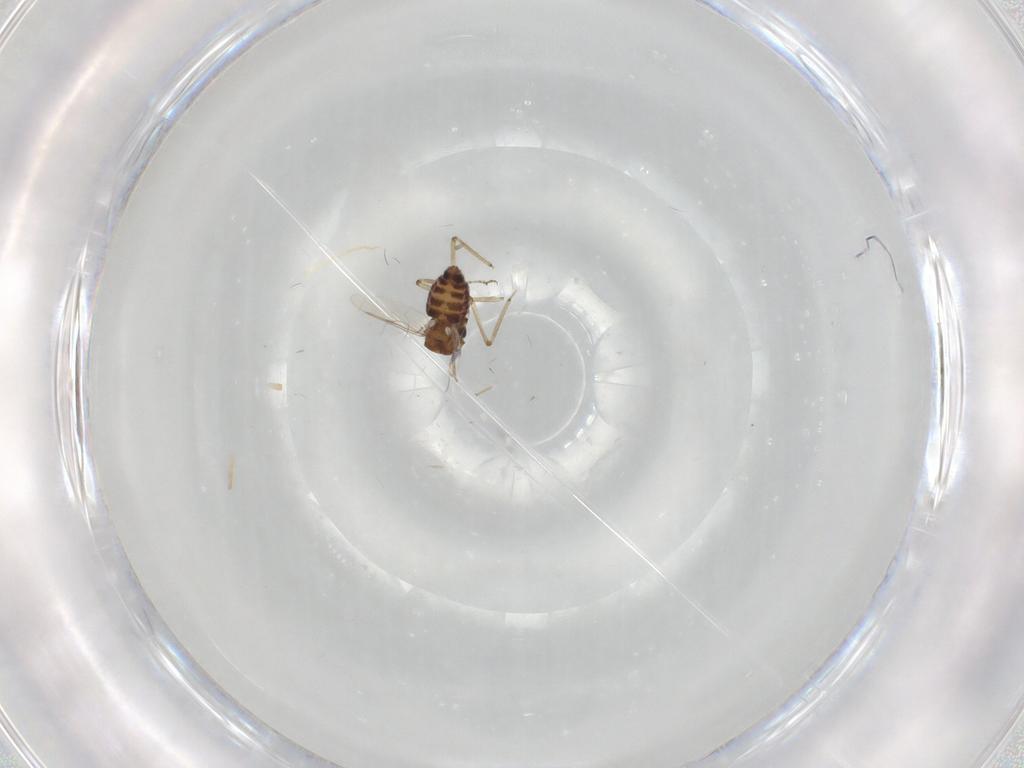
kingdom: Animalia
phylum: Arthropoda
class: Insecta
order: Diptera
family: Ceratopogonidae
